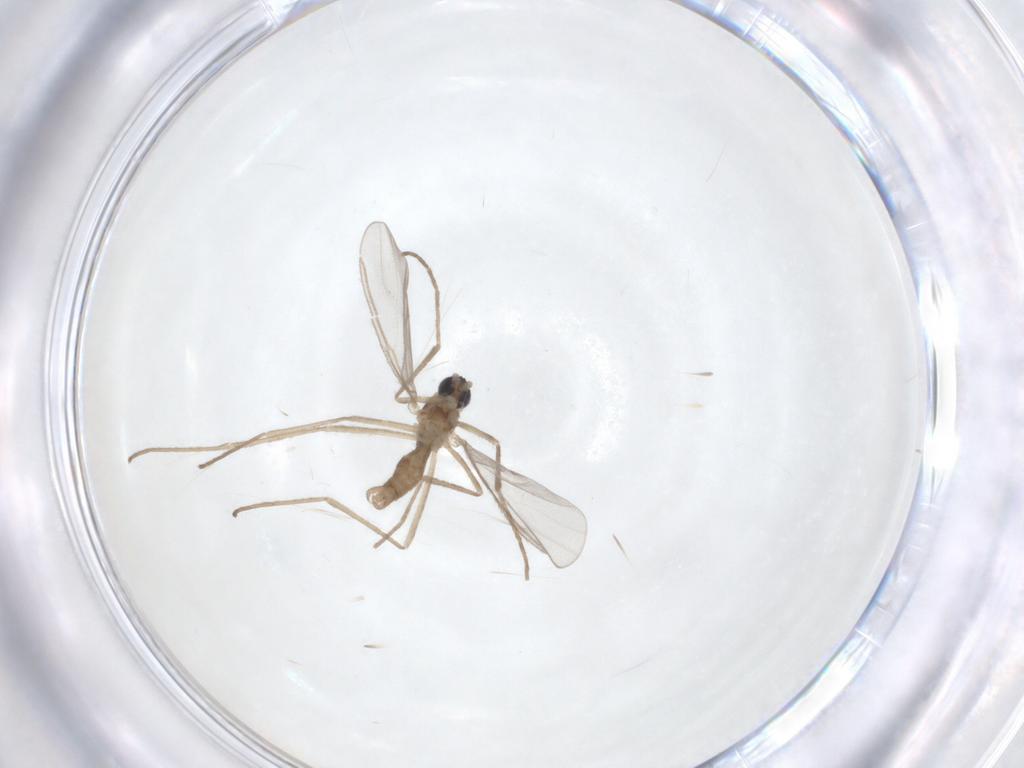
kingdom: Animalia
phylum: Arthropoda
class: Insecta
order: Diptera
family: Cecidomyiidae
